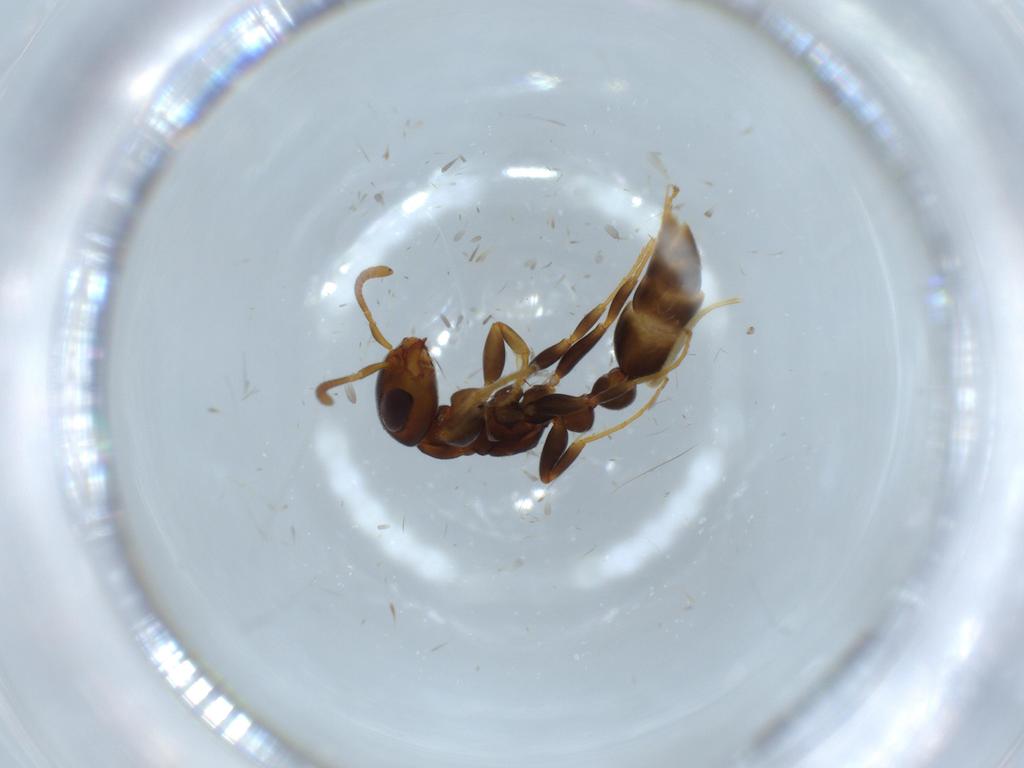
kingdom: Animalia
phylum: Arthropoda
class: Insecta
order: Hymenoptera
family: Formicidae
